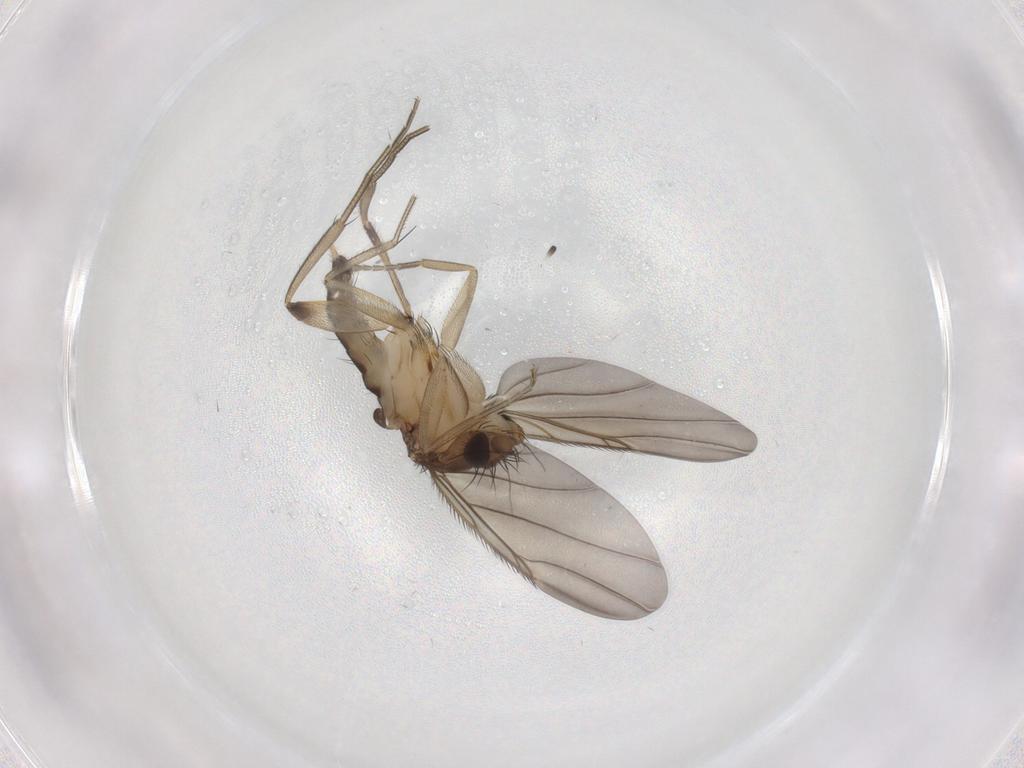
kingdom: Animalia
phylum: Arthropoda
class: Insecta
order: Diptera
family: Phoridae
